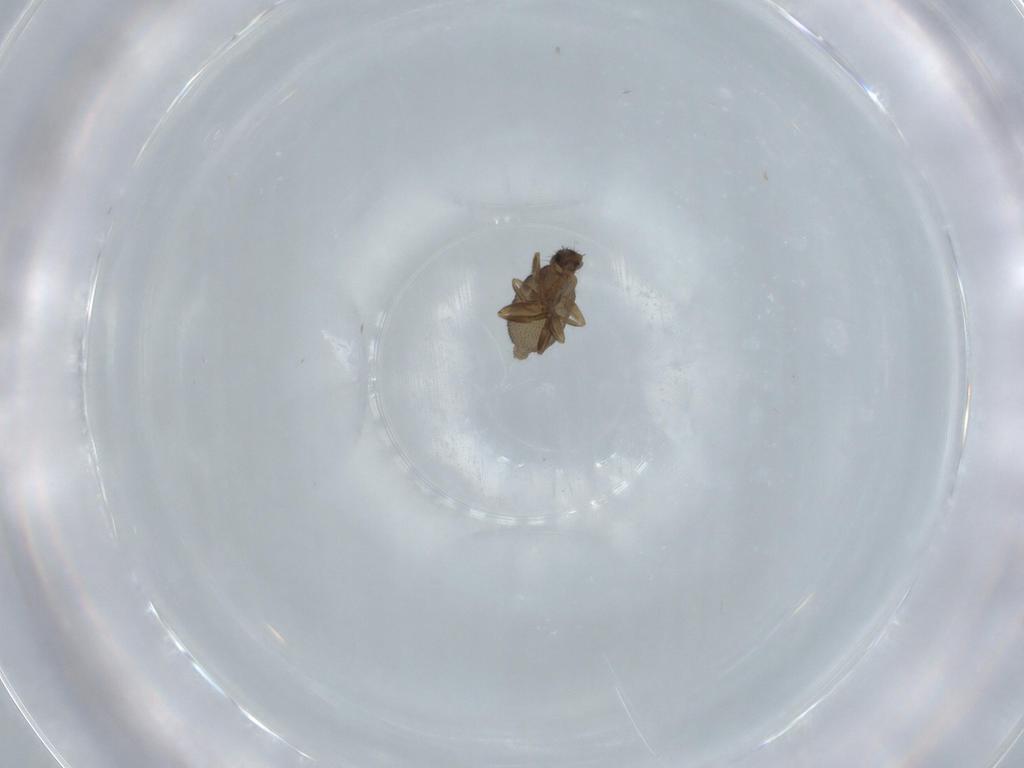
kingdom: Animalia
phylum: Arthropoda
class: Insecta
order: Diptera
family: Phoridae
